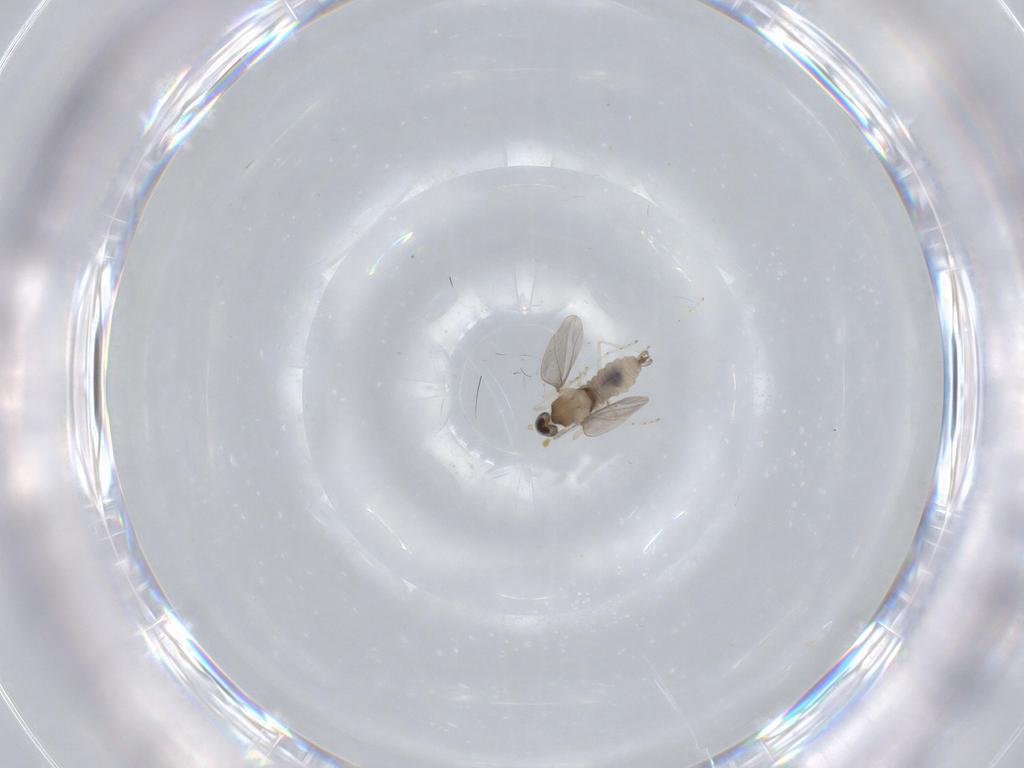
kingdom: Animalia
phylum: Arthropoda
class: Insecta
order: Diptera
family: Cecidomyiidae
